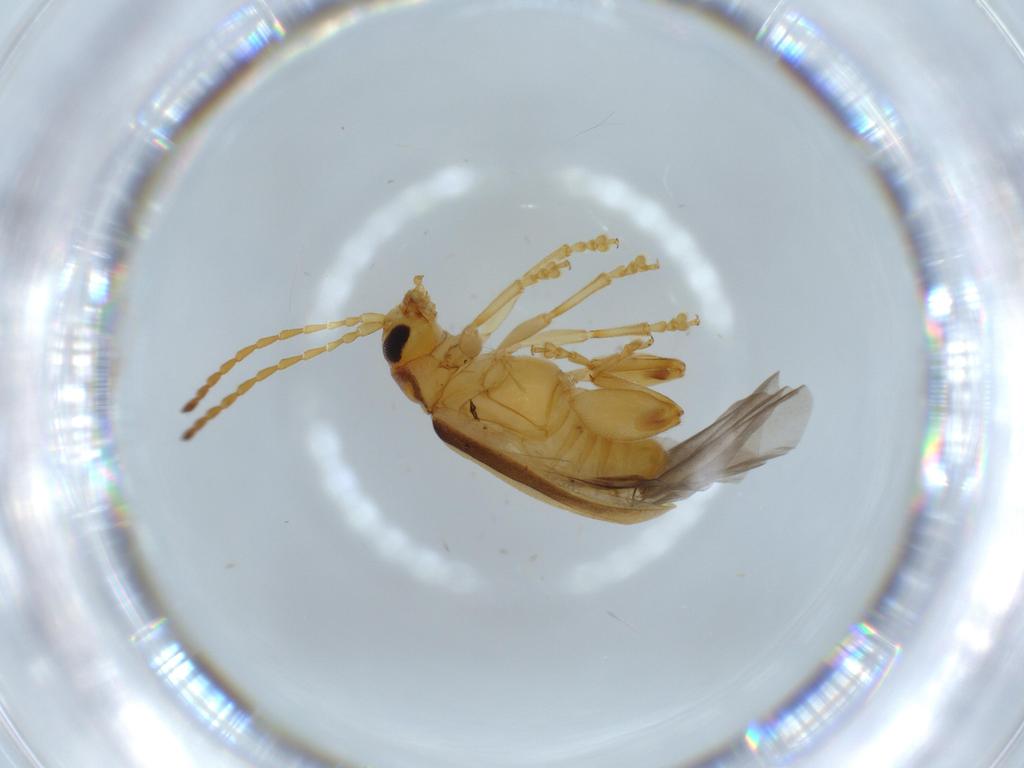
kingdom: Animalia
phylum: Arthropoda
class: Insecta
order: Coleoptera
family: Chrysomelidae
